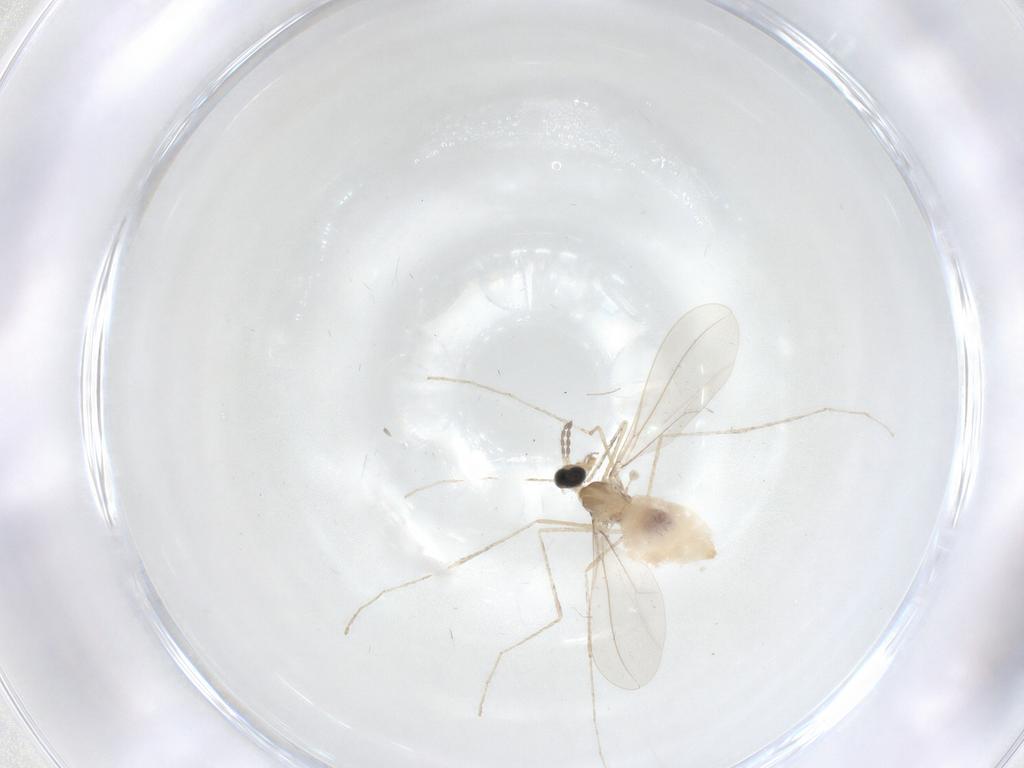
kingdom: Animalia
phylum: Arthropoda
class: Insecta
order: Diptera
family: Cecidomyiidae
